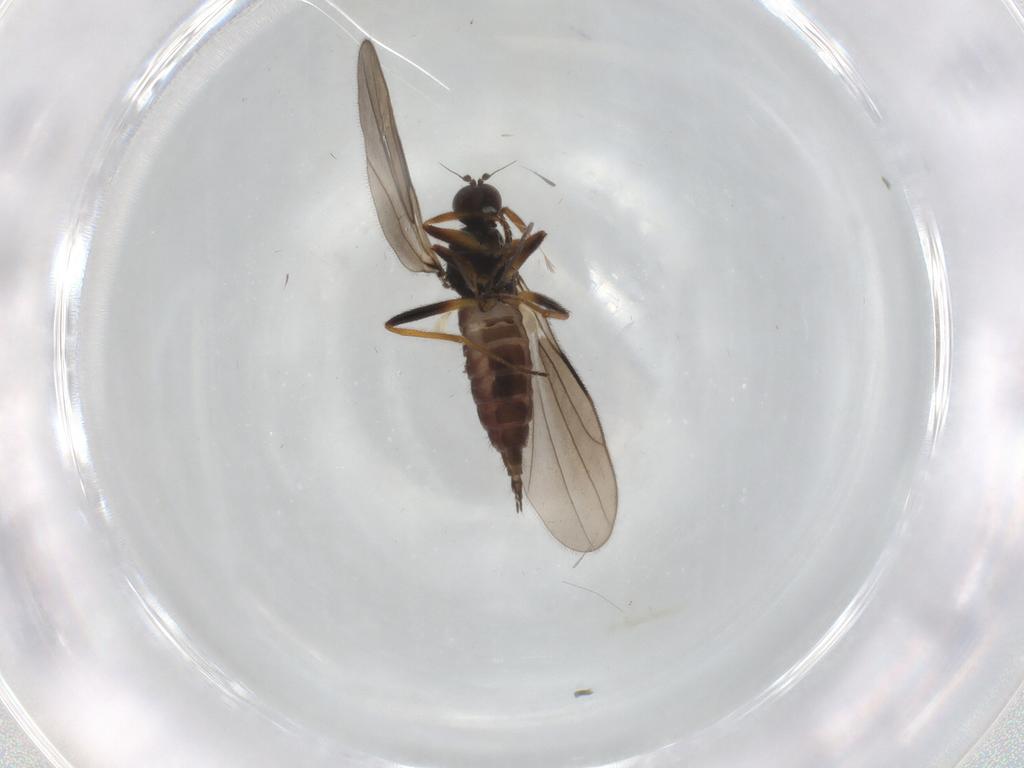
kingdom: Animalia
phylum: Arthropoda
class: Insecta
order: Diptera
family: Hybotidae
